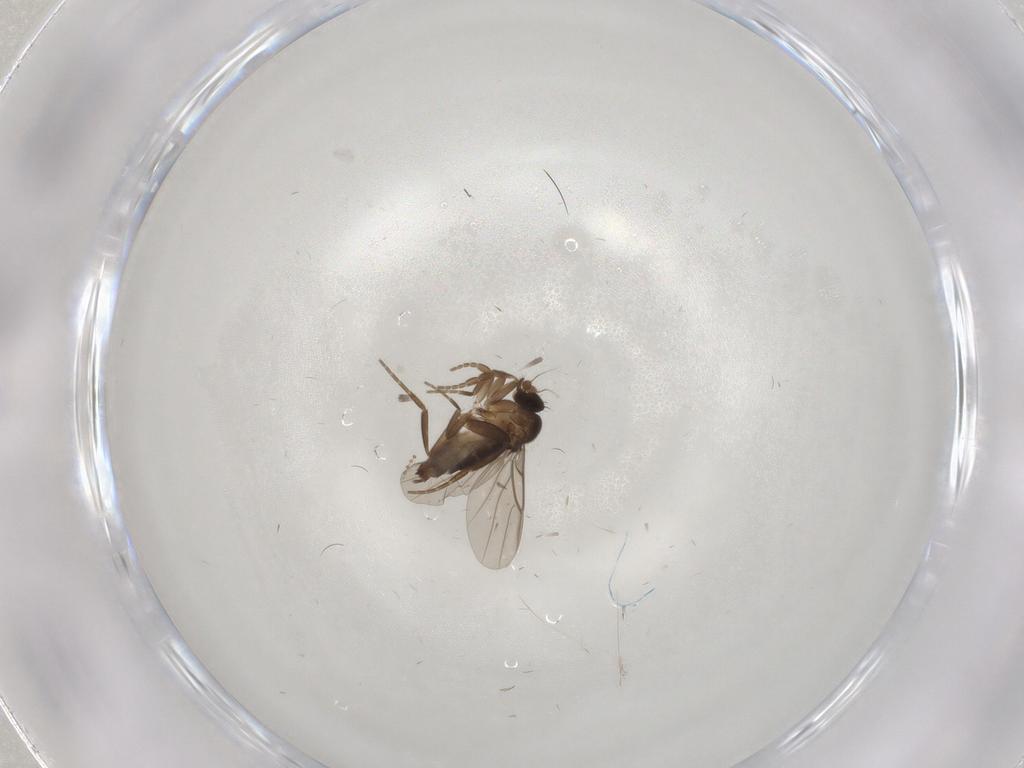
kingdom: Animalia
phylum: Arthropoda
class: Insecta
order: Diptera
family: Phoridae
